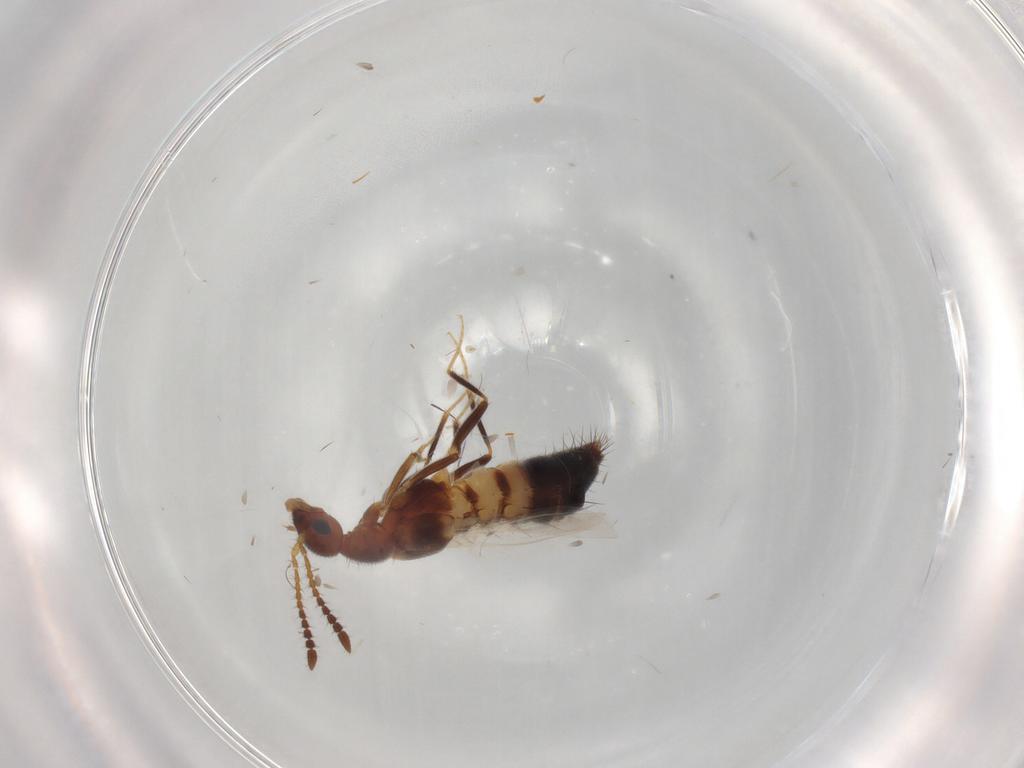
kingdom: Animalia
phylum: Arthropoda
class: Insecta
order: Coleoptera
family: Staphylinidae
